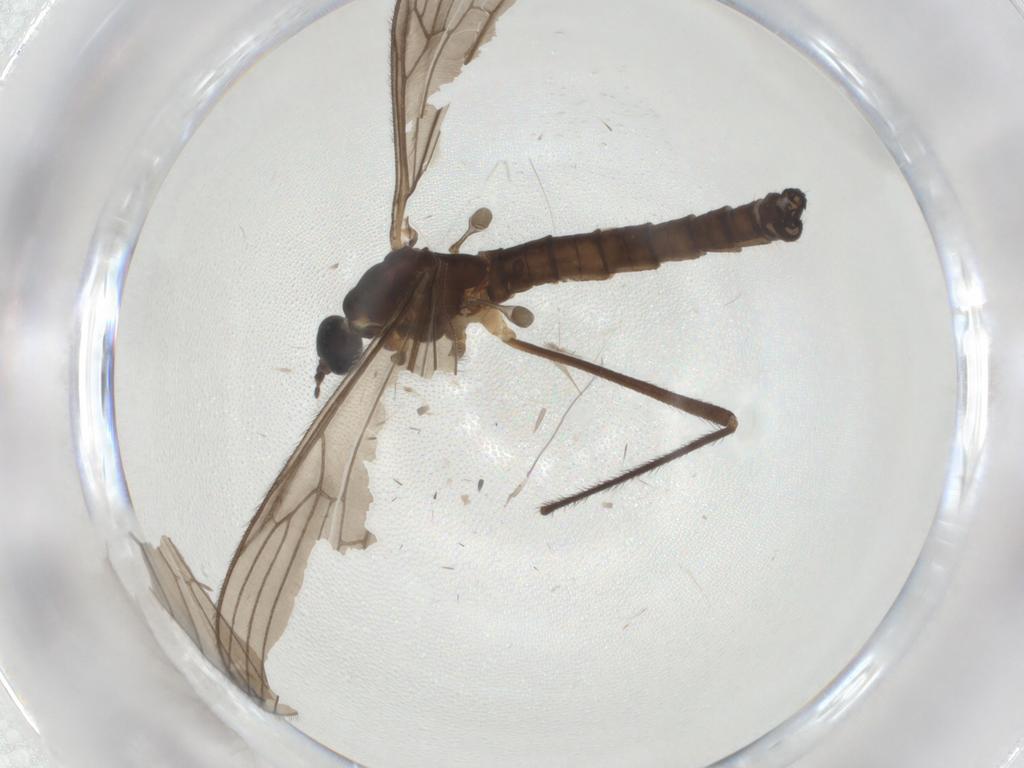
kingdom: Animalia
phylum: Arthropoda
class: Insecta
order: Diptera
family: Limoniidae
